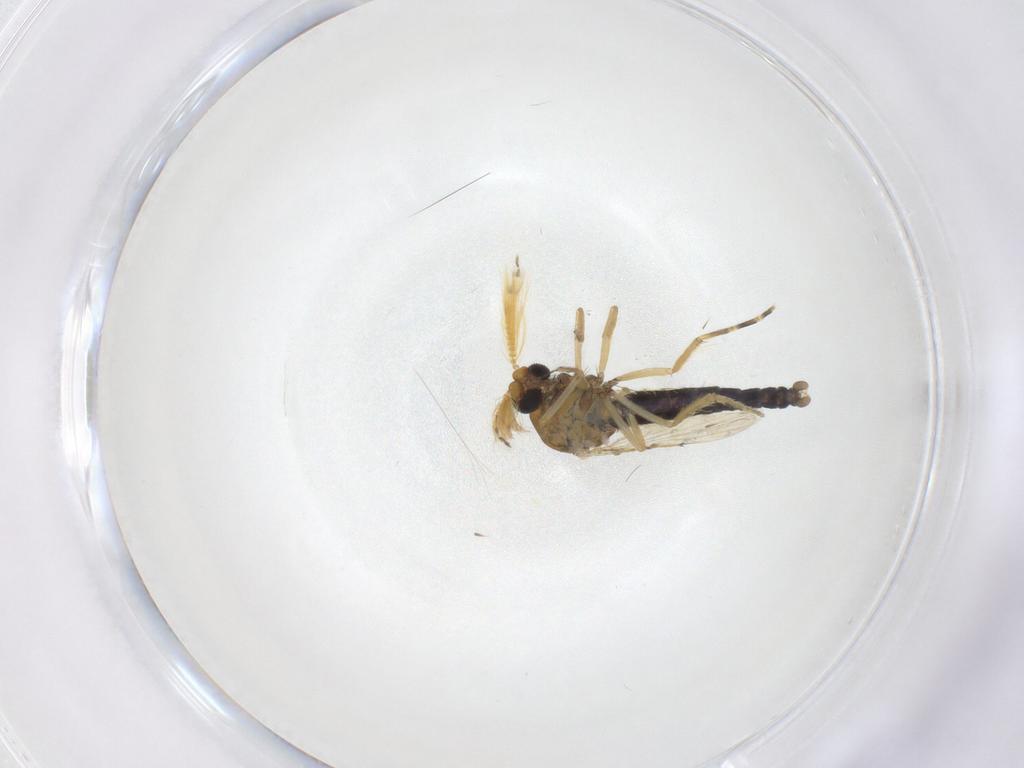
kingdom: Animalia
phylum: Arthropoda
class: Insecta
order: Diptera
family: Ceratopogonidae
